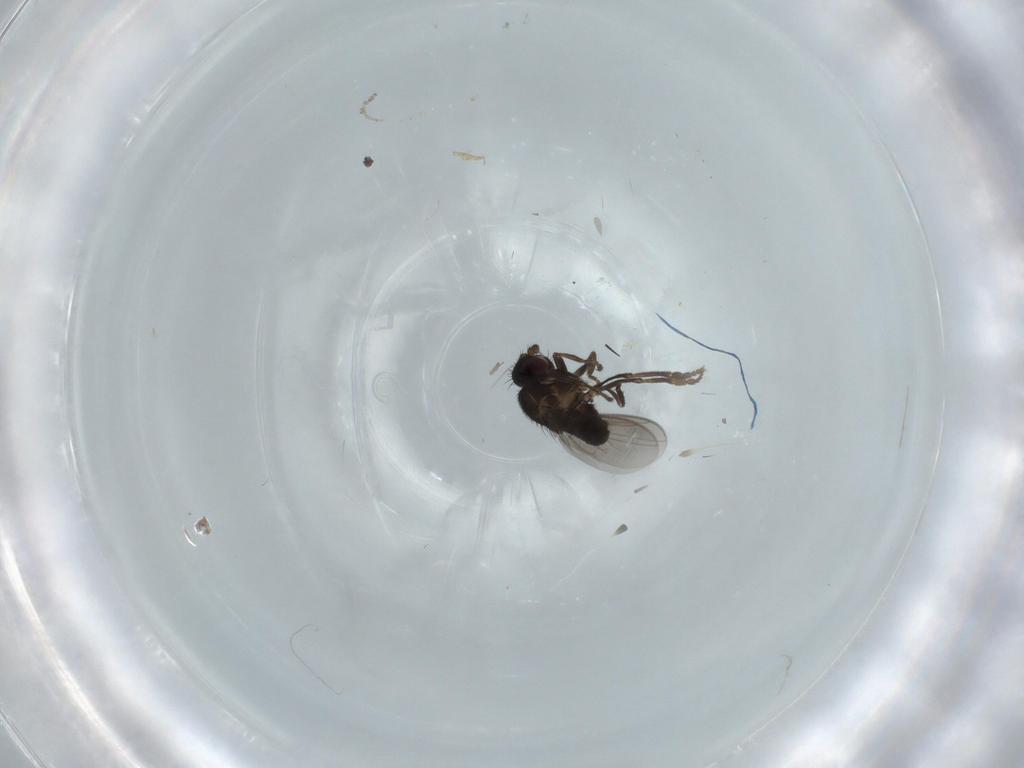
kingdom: Animalia
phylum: Arthropoda
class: Insecta
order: Diptera
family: Sphaeroceridae
